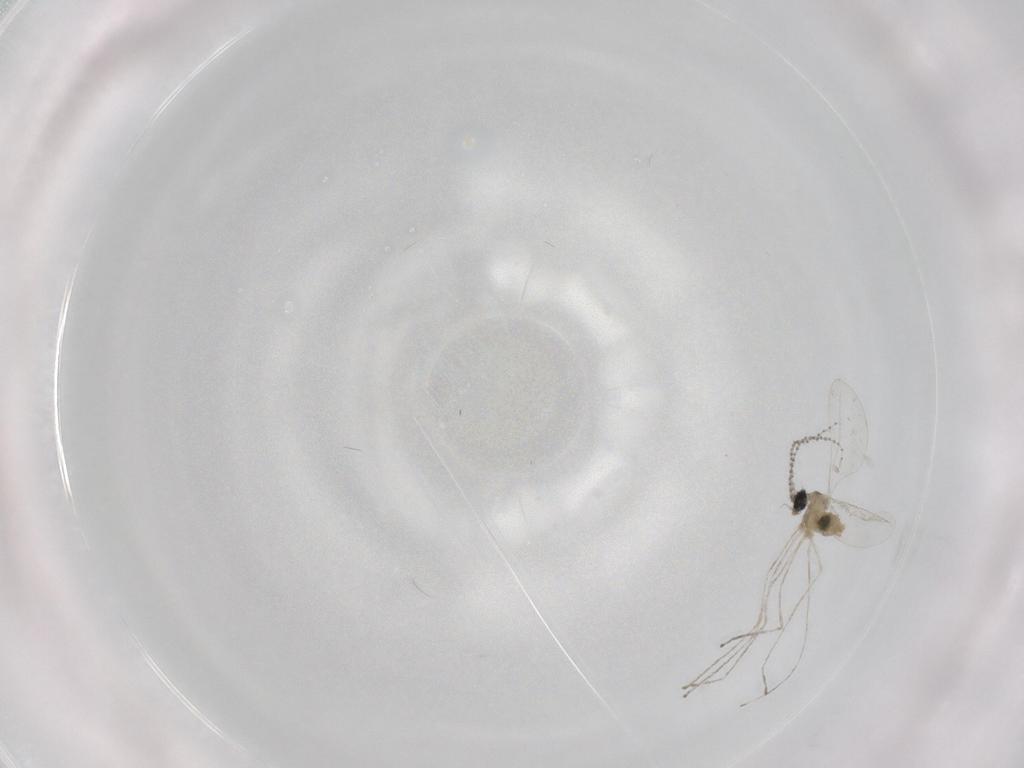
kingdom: Animalia
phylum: Arthropoda
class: Insecta
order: Diptera
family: Cecidomyiidae
